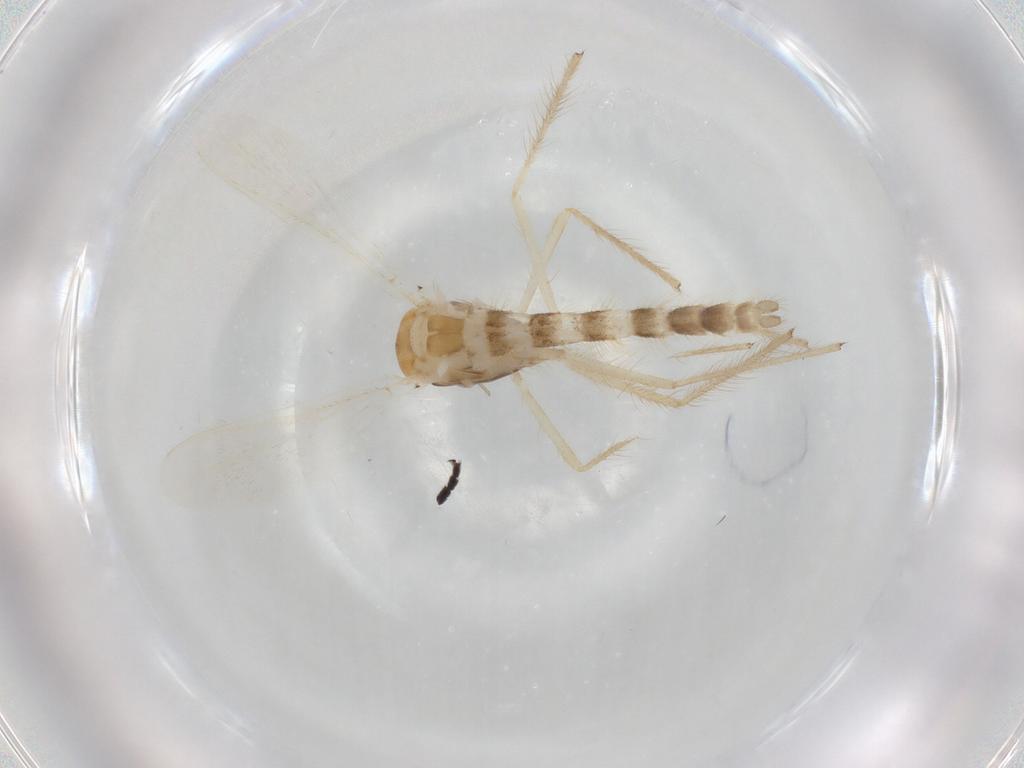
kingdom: Animalia
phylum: Arthropoda
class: Insecta
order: Diptera
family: Chironomidae
